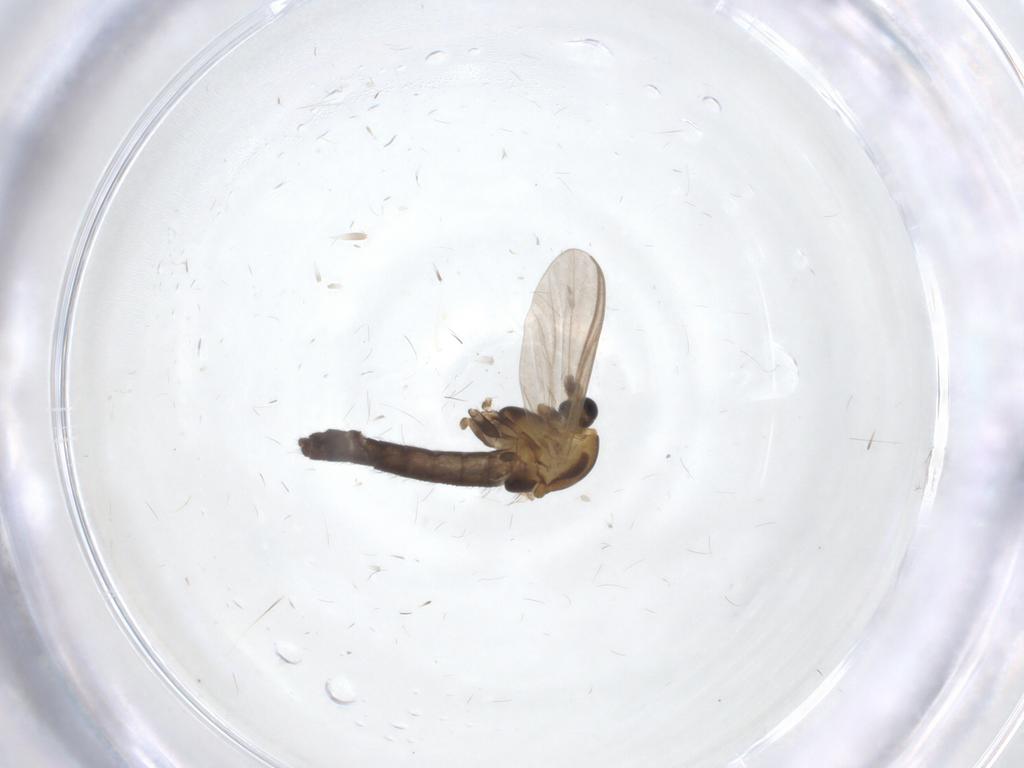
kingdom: Animalia
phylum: Arthropoda
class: Insecta
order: Diptera
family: Chironomidae
